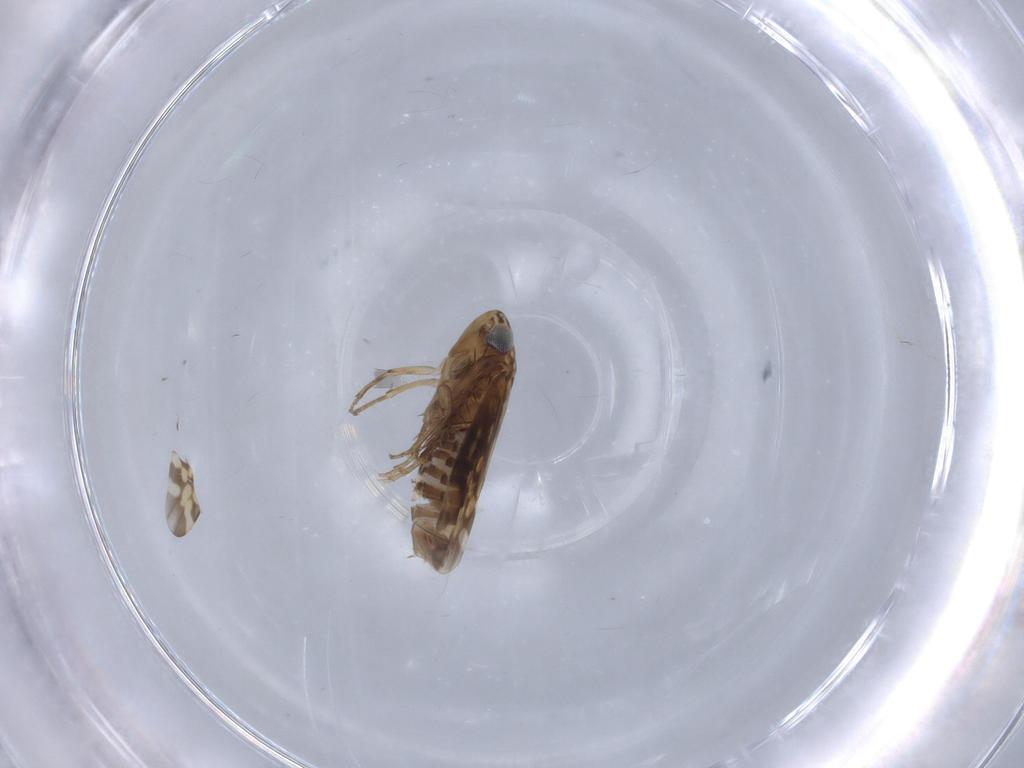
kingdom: Animalia
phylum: Arthropoda
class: Insecta
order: Hemiptera
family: Cicadellidae
